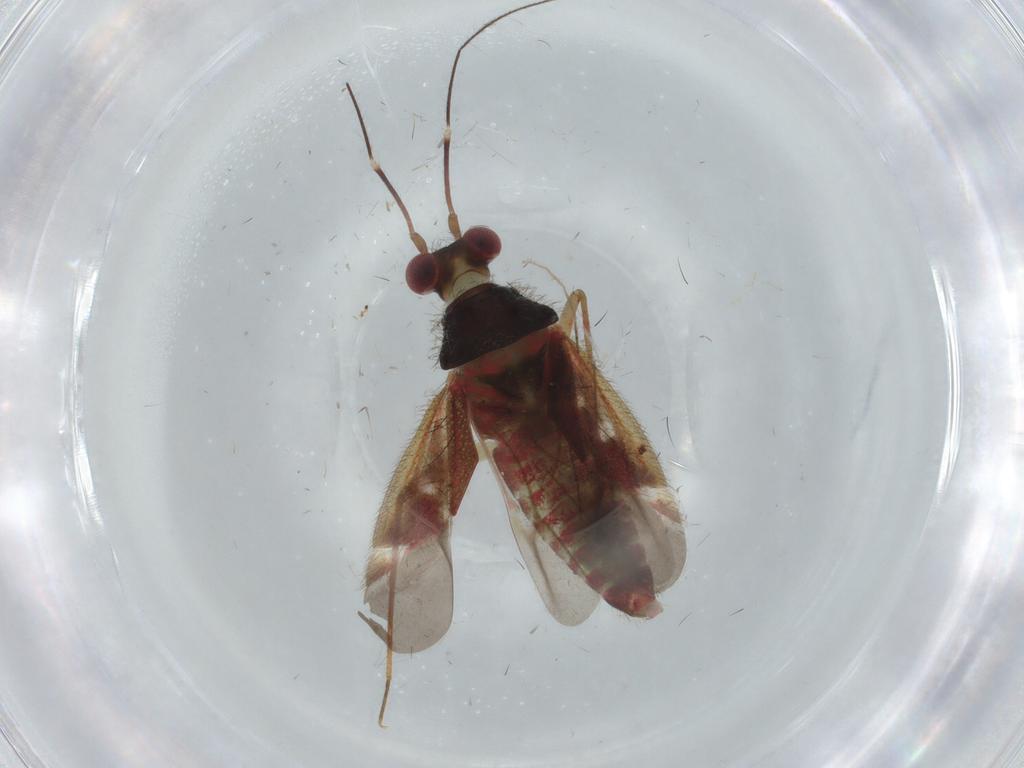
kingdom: Animalia
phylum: Arthropoda
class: Insecta
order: Hemiptera
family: Miridae
